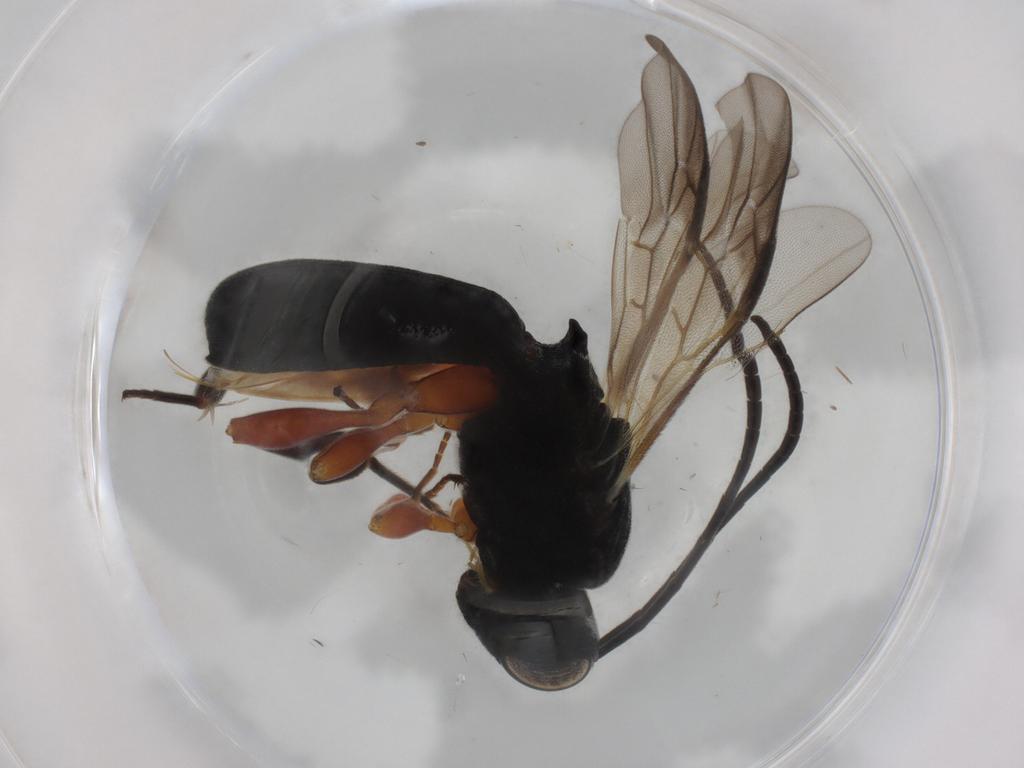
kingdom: Animalia
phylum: Arthropoda
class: Insecta
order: Hymenoptera
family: Braconidae
